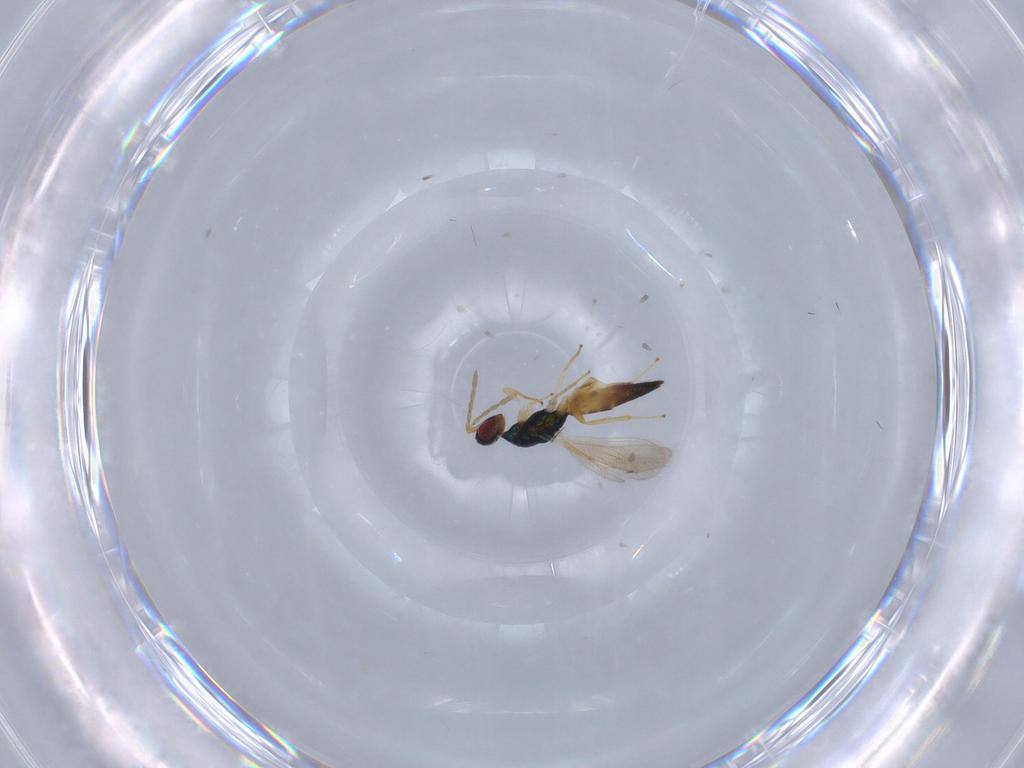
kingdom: Animalia
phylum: Arthropoda
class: Insecta
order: Hymenoptera
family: Eulophidae
